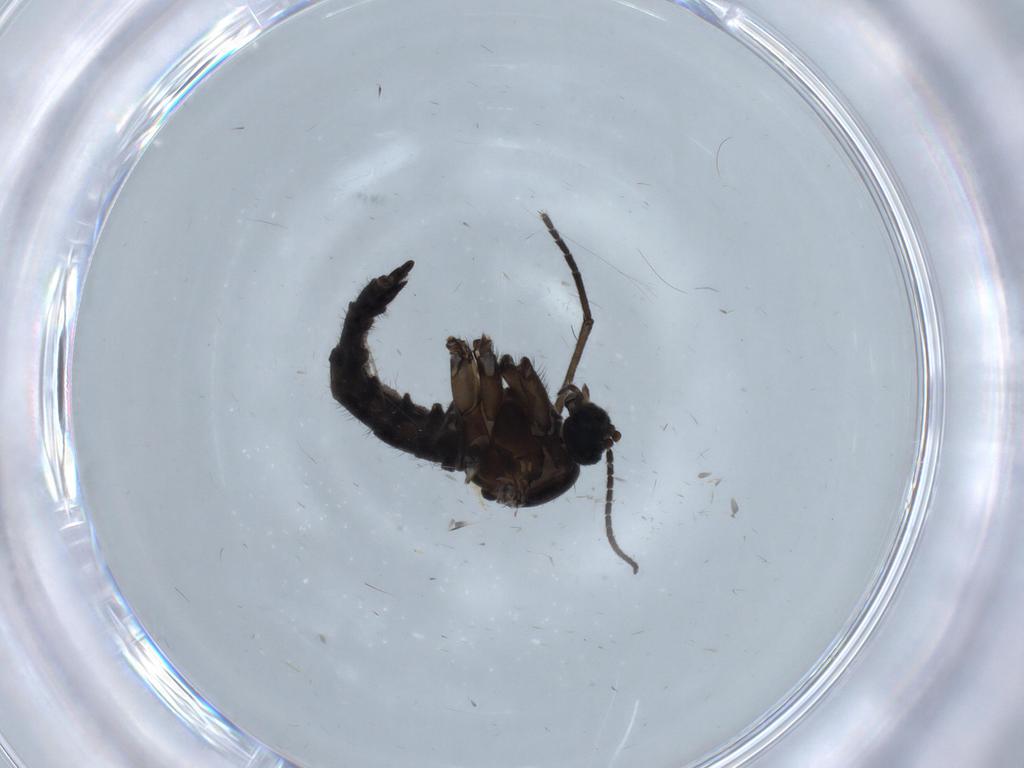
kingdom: Animalia
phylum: Arthropoda
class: Insecta
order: Diptera
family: Sciaridae
